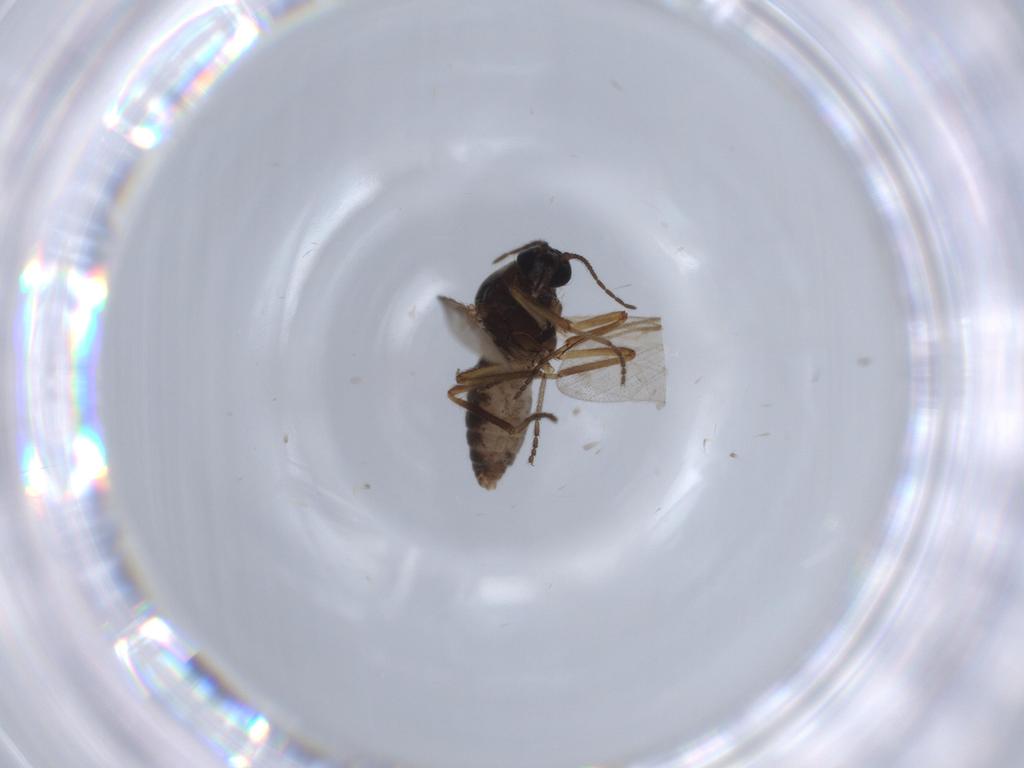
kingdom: Animalia
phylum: Arthropoda
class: Insecta
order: Diptera
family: Ceratopogonidae
